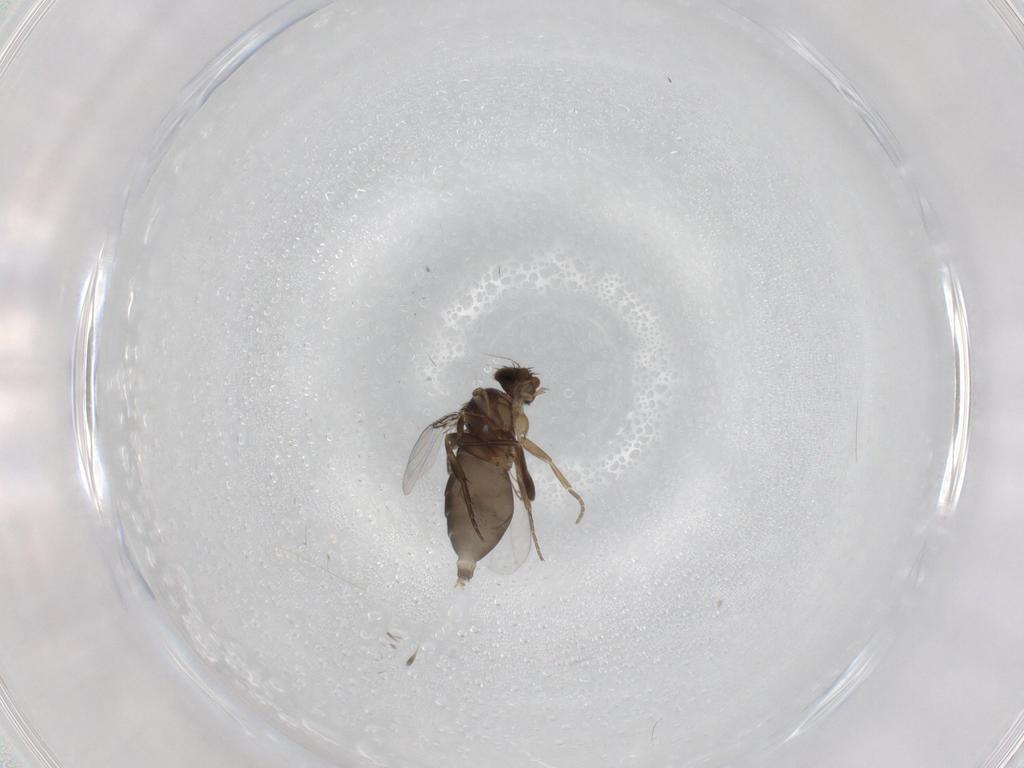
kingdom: Animalia
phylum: Arthropoda
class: Insecta
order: Diptera
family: Phoridae
